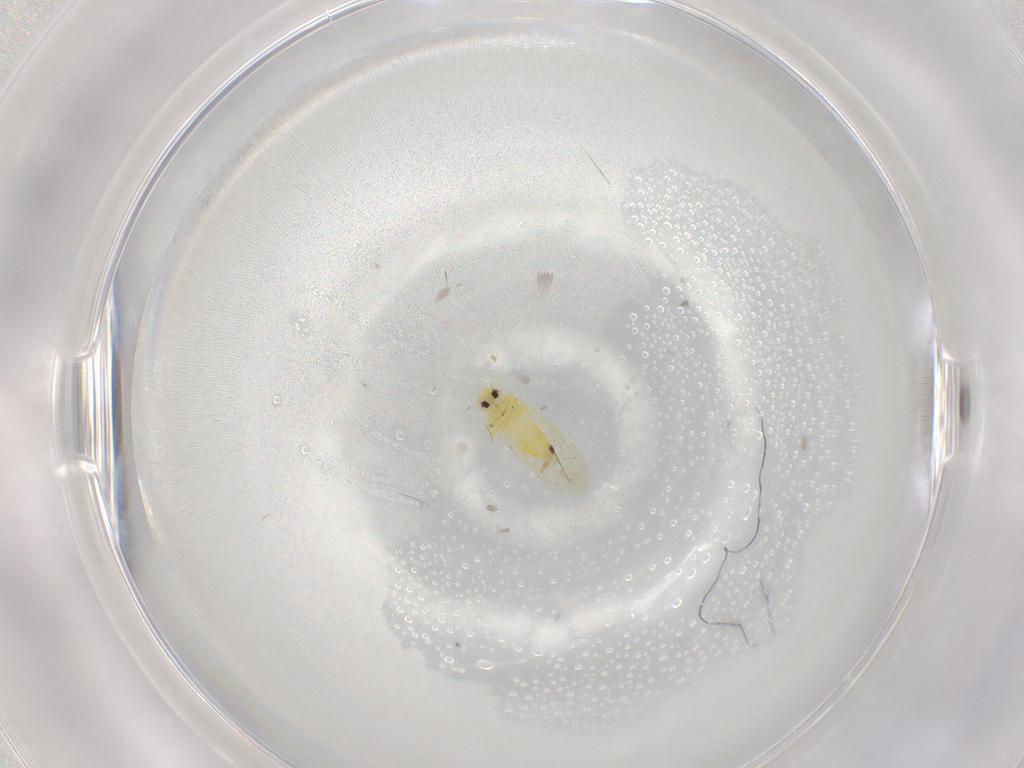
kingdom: Animalia
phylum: Arthropoda
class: Insecta
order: Hemiptera
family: Aleyrodidae
